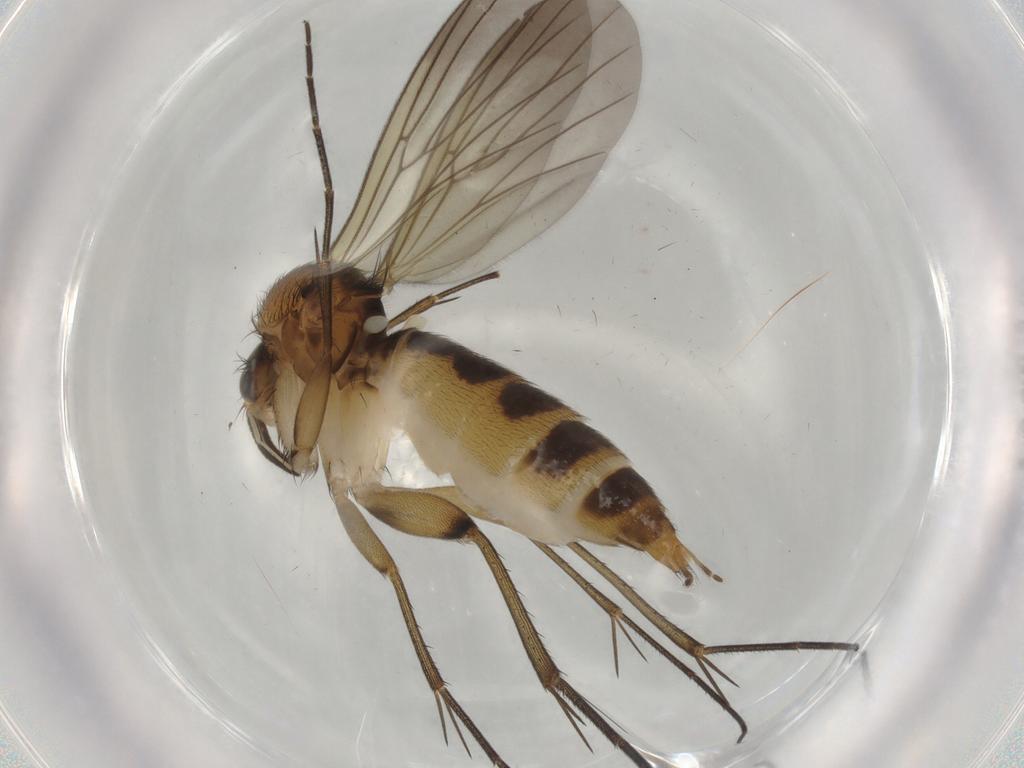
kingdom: Animalia
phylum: Arthropoda
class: Insecta
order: Diptera
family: Mycetophilidae
